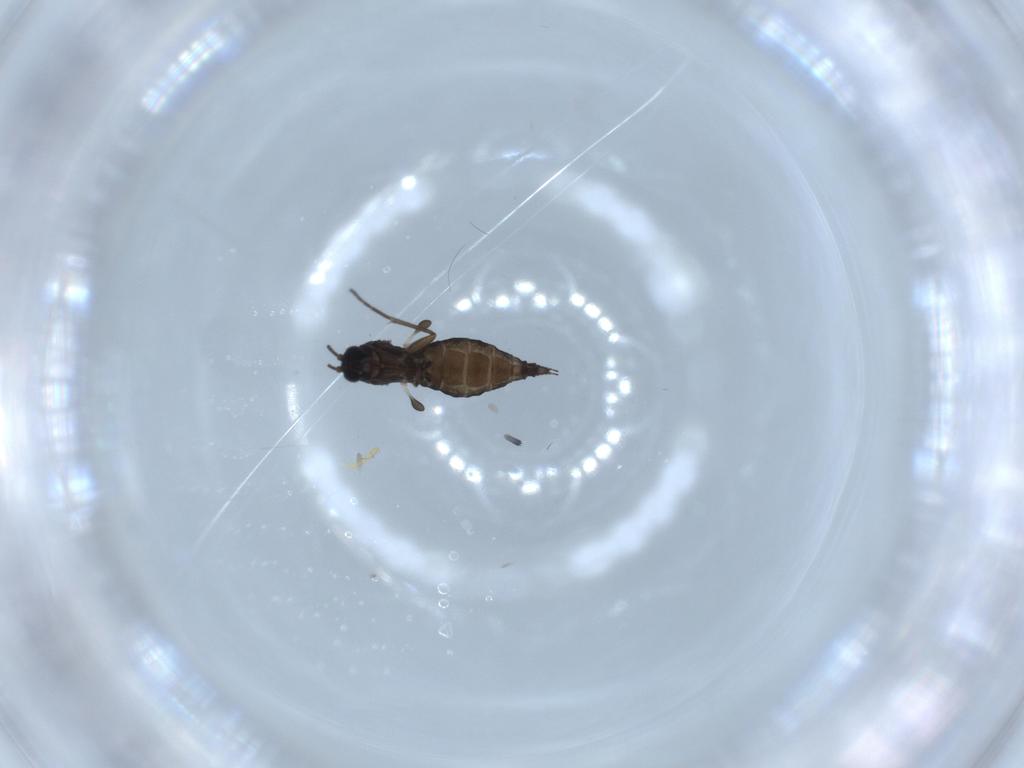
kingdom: Animalia
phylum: Arthropoda
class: Insecta
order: Diptera
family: Sciaridae
